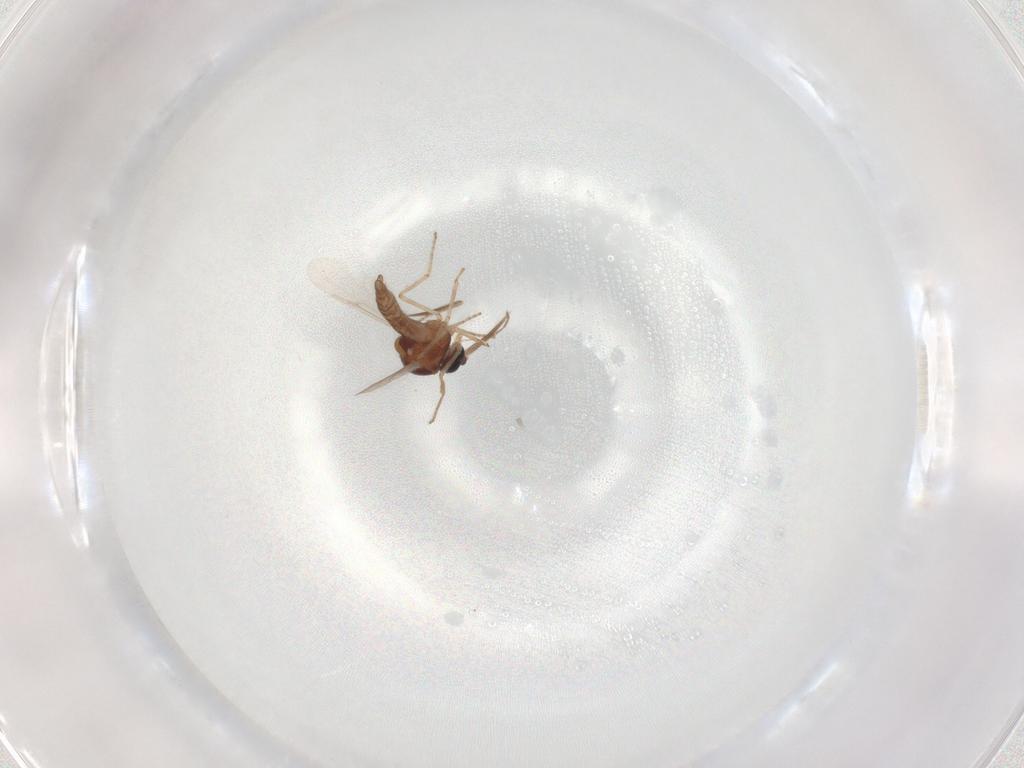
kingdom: Animalia
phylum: Arthropoda
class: Insecta
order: Diptera
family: Ceratopogonidae
